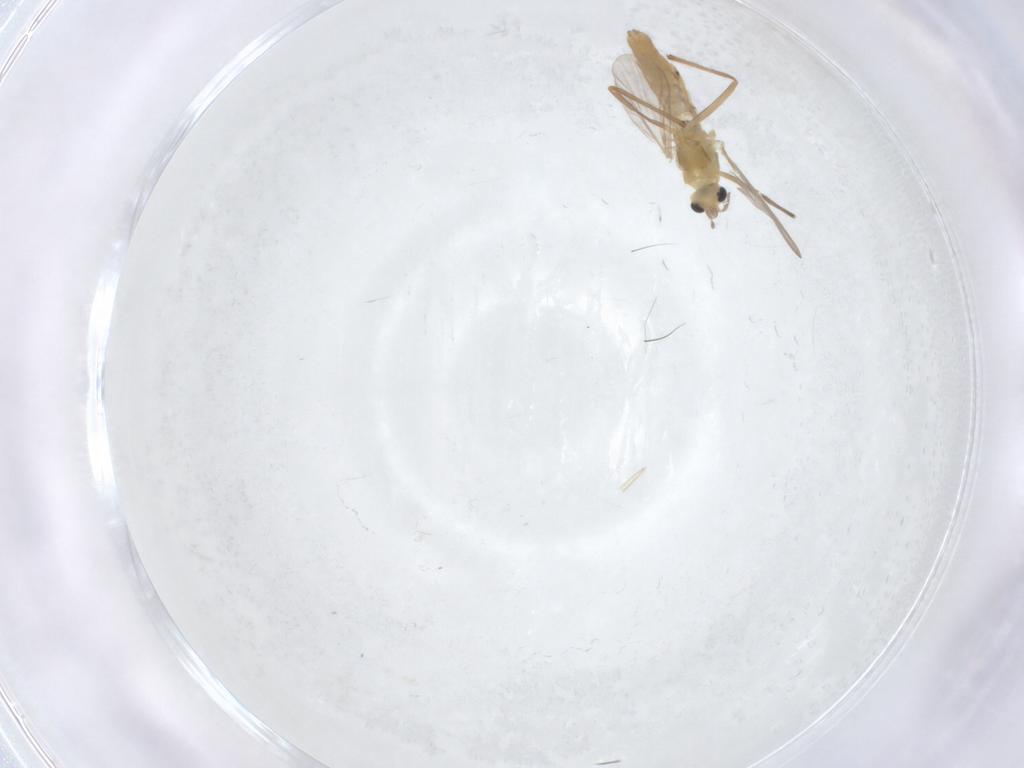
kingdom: Animalia
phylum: Arthropoda
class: Insecta
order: Diptera
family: Chironomidae
